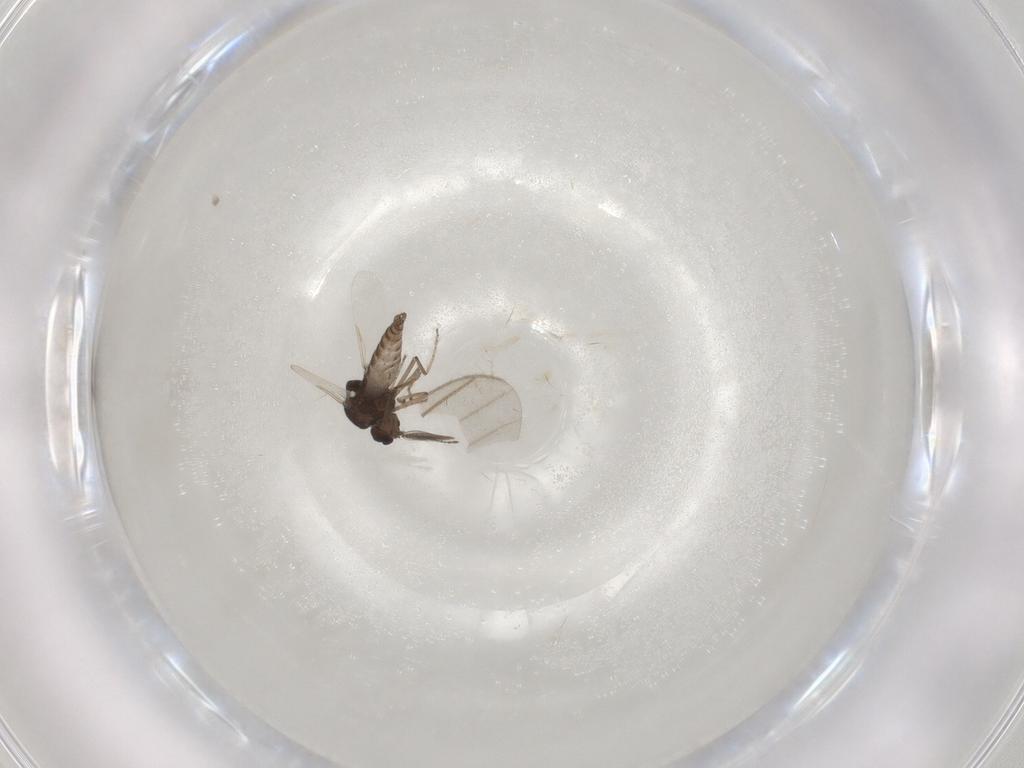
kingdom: Animalia
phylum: Arthropoda
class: Insecta
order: Diptera
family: Ceratopogonidae
